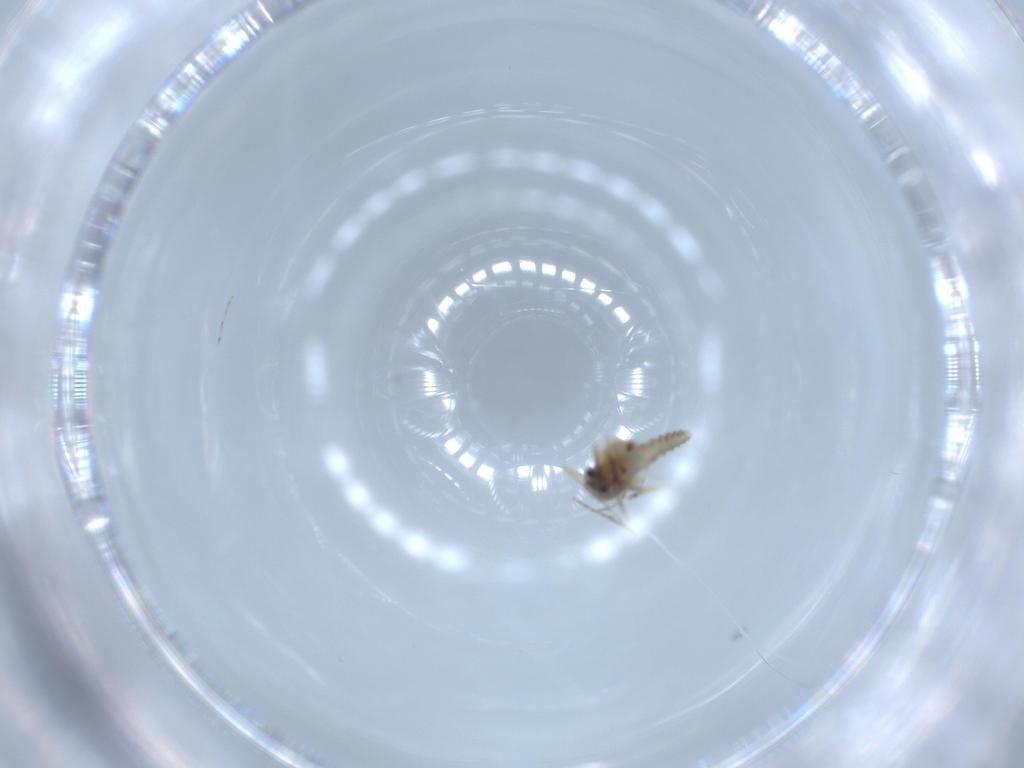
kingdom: Animalia
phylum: Arthropoda
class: Insecta
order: Diptera
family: Ceratopogonidae
